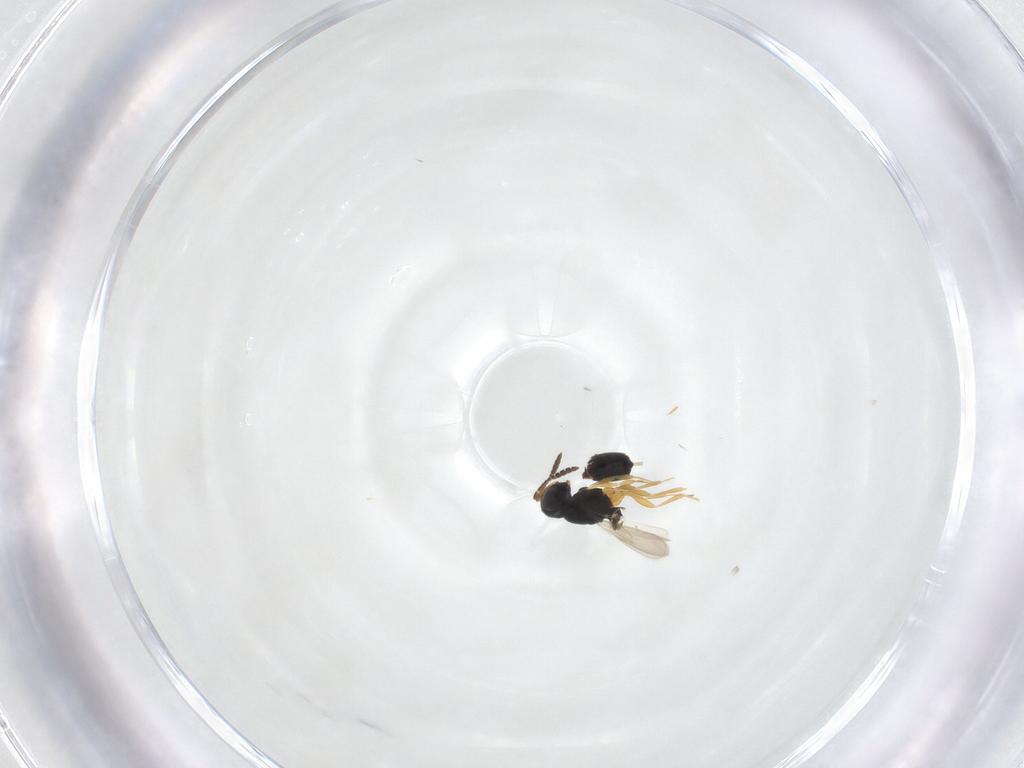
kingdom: Animalia
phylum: Arthropoda
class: Insecta
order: Hymenoptera
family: Scelionidae
